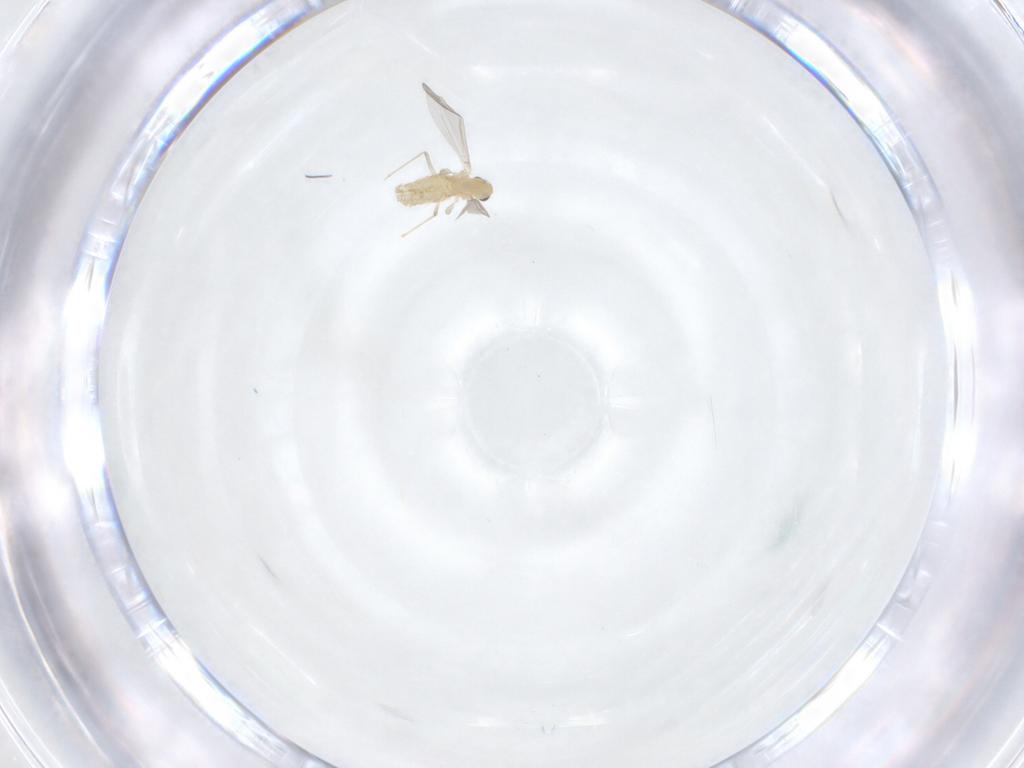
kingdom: Animalia
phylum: Arthropoda
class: Insecta
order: Diptera
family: Chironomidae
